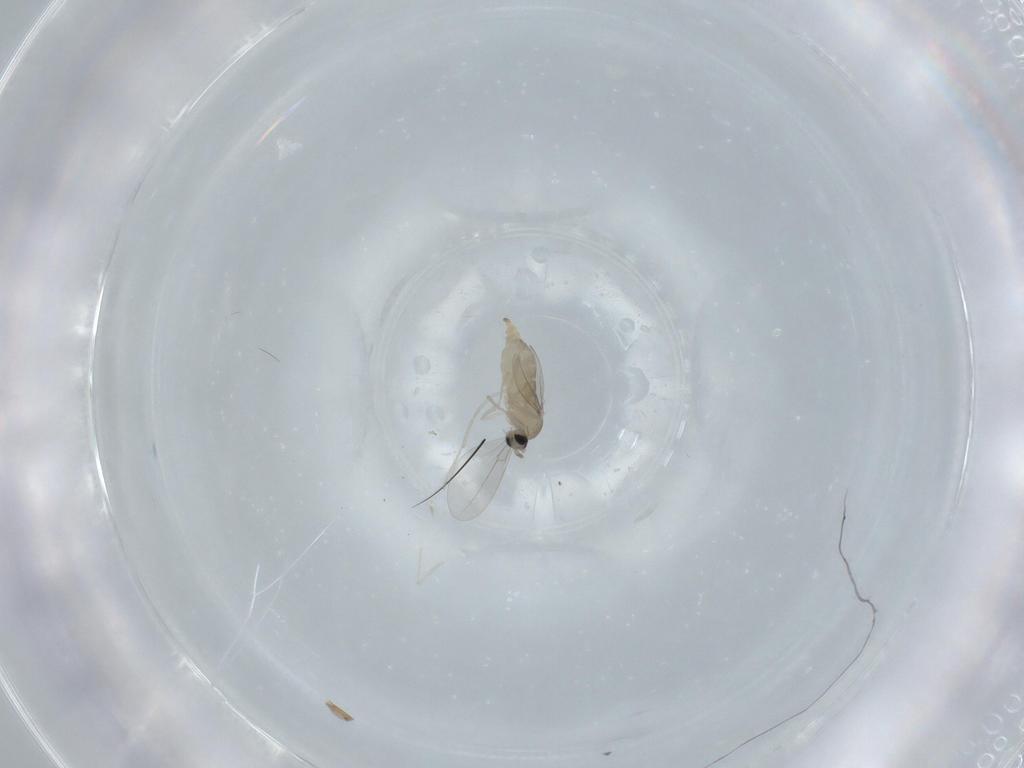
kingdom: Animalia
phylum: Arthropoda
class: Insecta
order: Diptera
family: Cecidomyiidae
